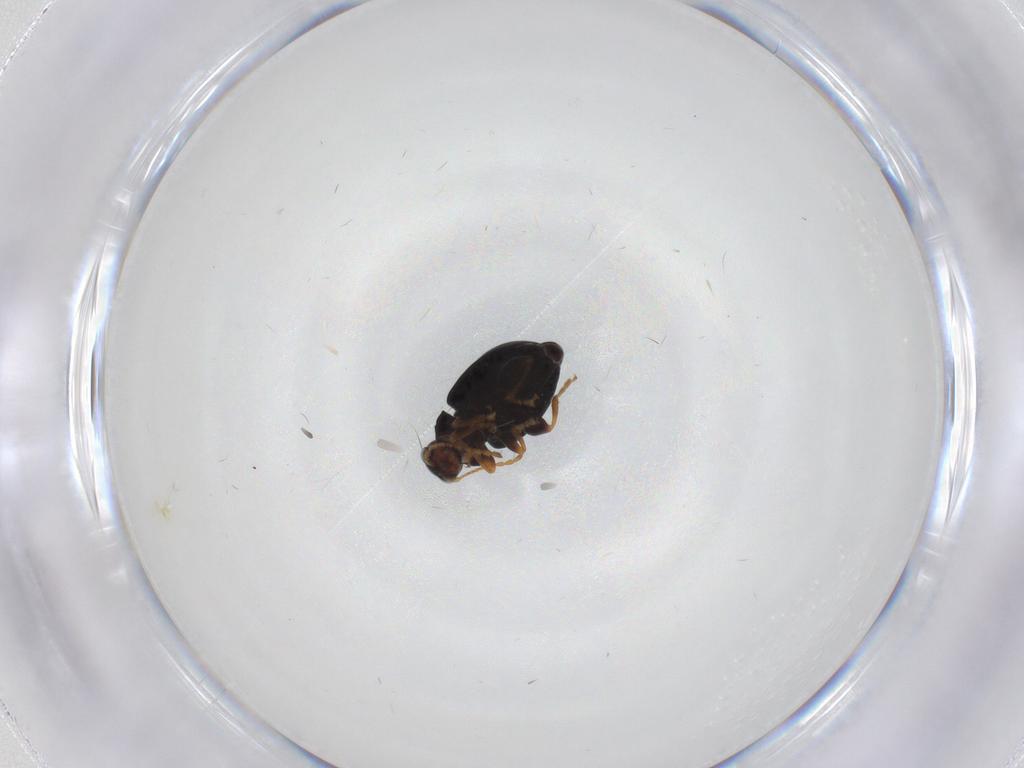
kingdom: Animalia
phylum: Arthropoda
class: Insecta
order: Coleoptera
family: Chrysomelidae
